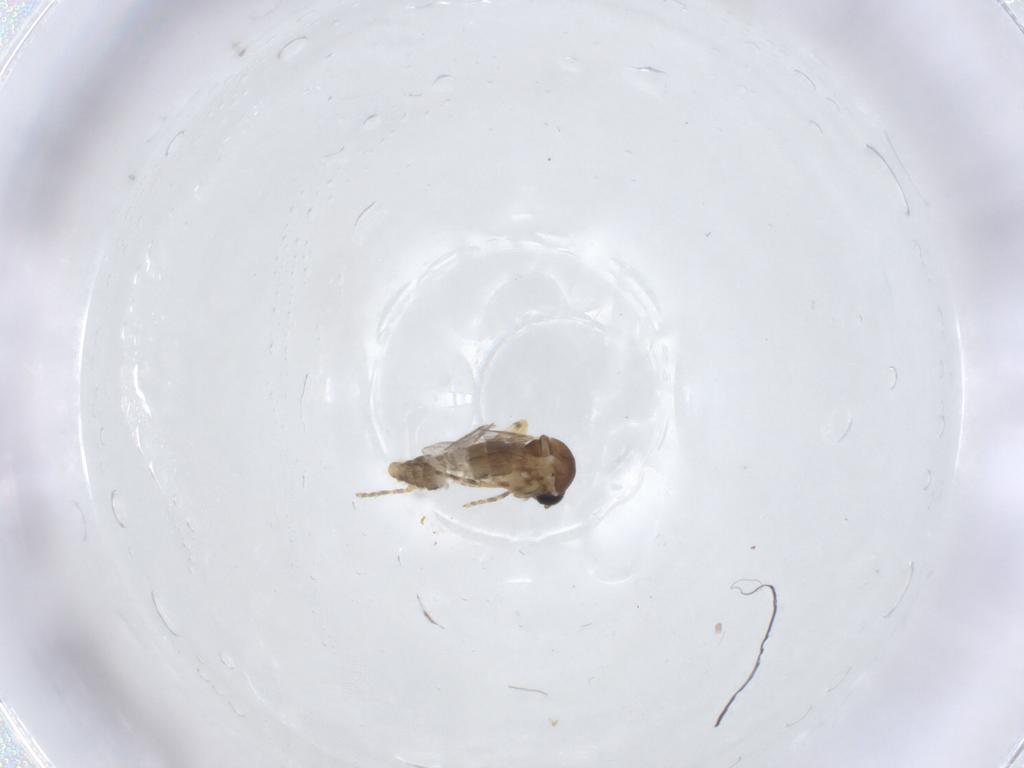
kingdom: Animalia
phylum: Arthropoda
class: Insecta
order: Diptera
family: Ceratopogonidae
